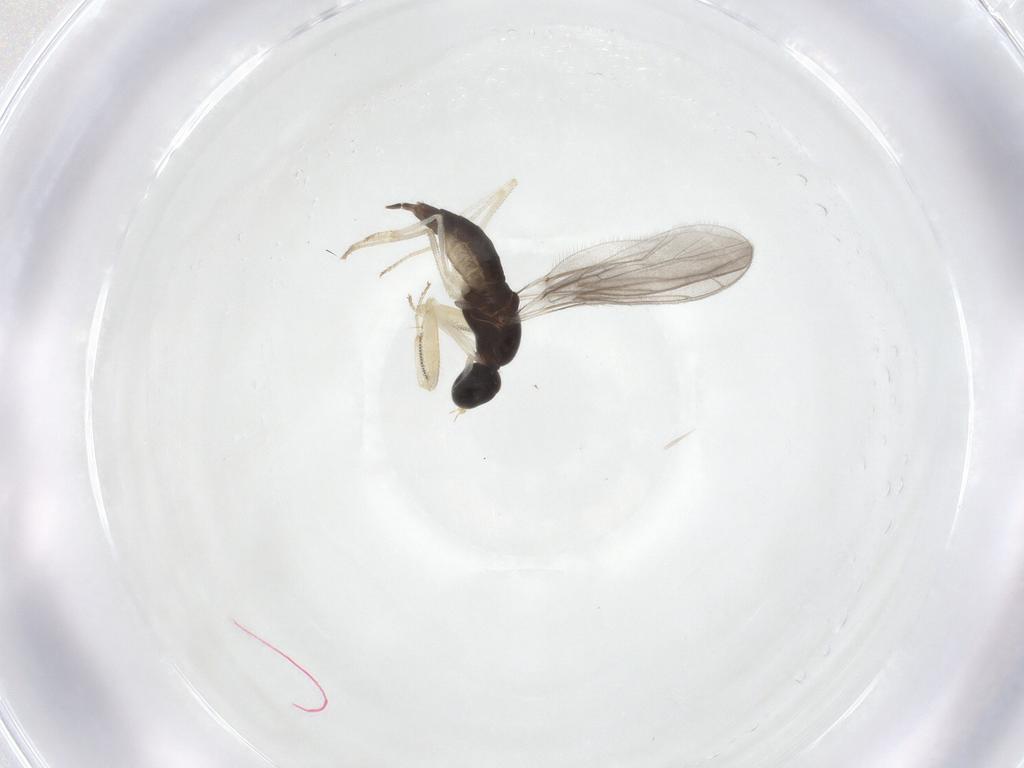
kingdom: Animalia
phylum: Arthropoda
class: Insecta
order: Diptera
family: Empididae
